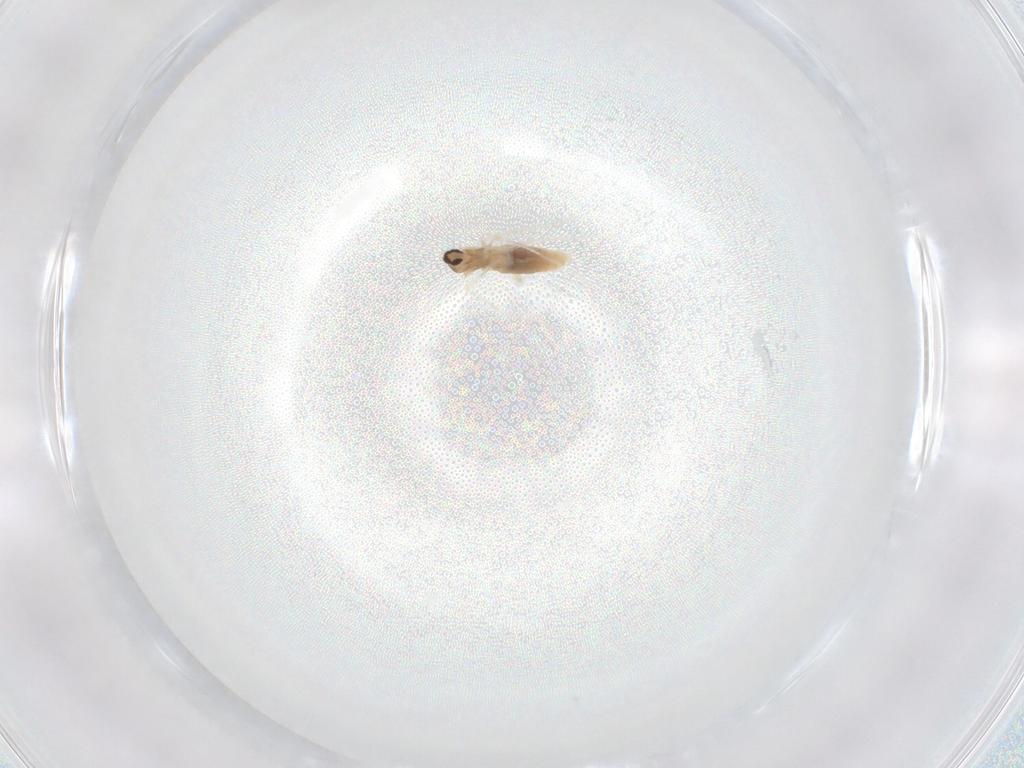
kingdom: Animalia
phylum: Arthropoda
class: Insecta
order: Diptera
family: Cecidomyiidae
